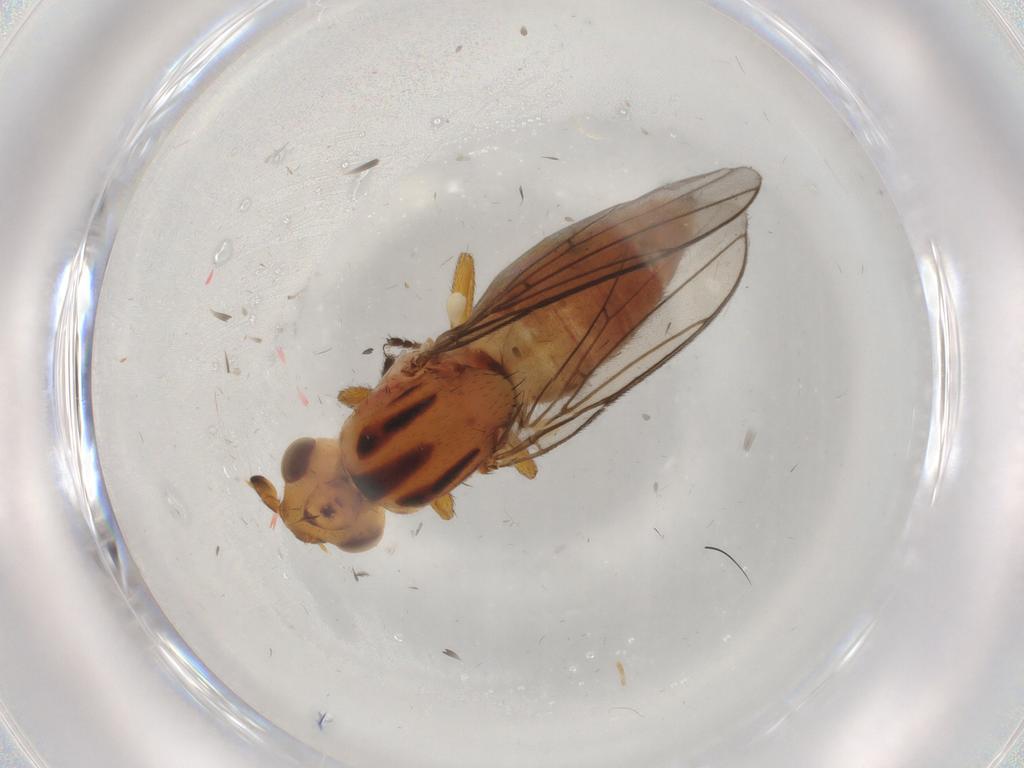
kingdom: Animalia
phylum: Arthropoda
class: Insecta
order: Diptera
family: Chloropidae
